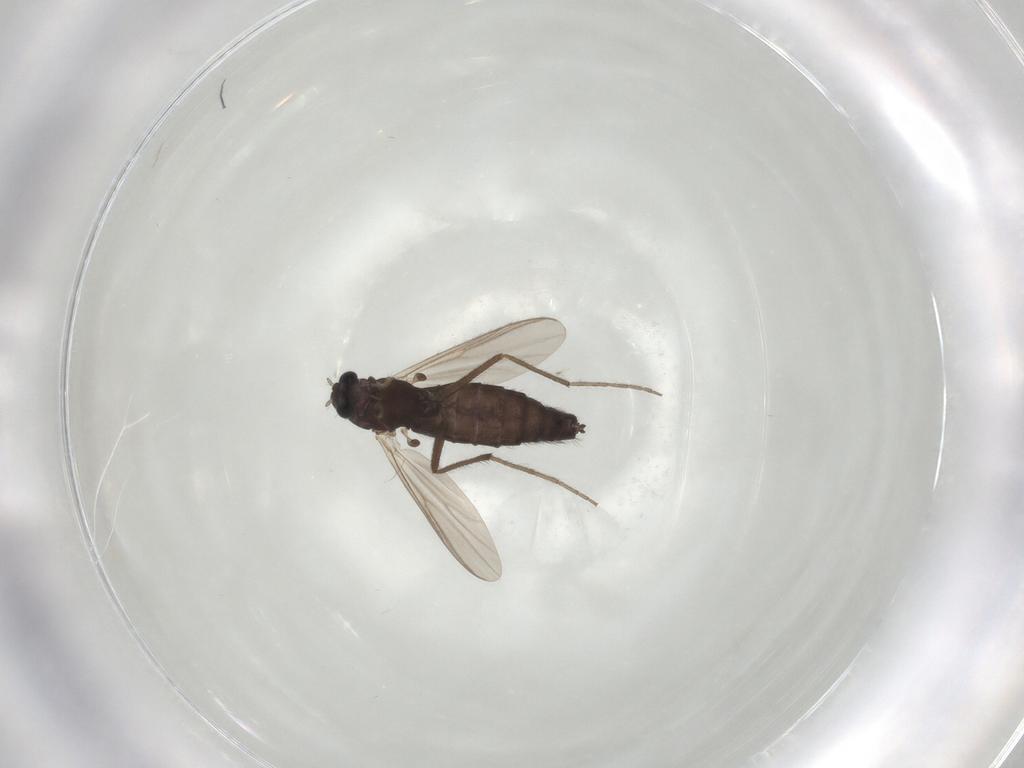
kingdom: Animalia
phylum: Arthropoda
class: Insecta
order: Diptera
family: Chironomidae
